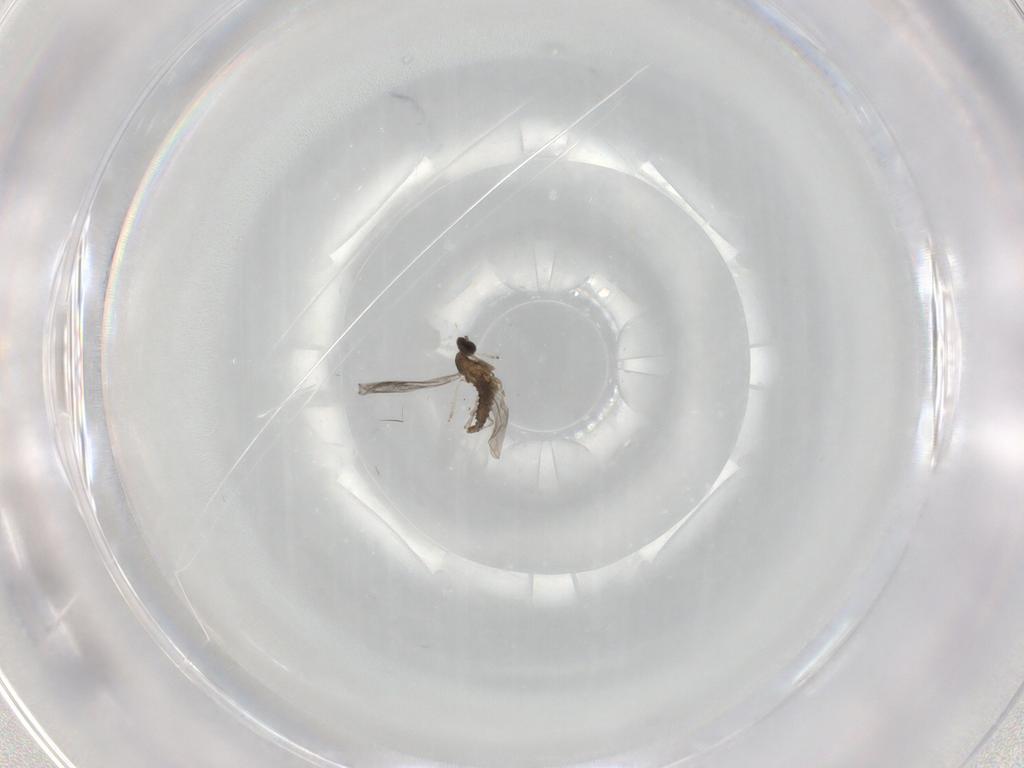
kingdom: Animalia
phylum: Arthropoda
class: Insecta
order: Diptera
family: Cecidomyiidae
